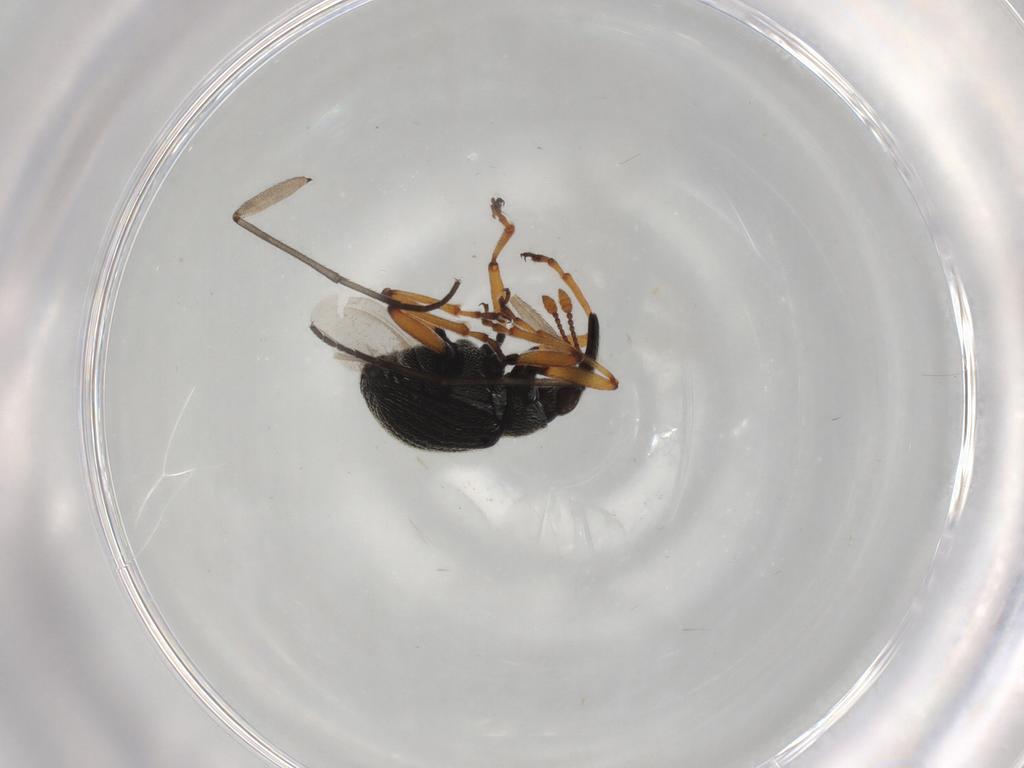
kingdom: Animalia
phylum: Arthropoda
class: Insecta
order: Coleoptera
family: Brentidae
